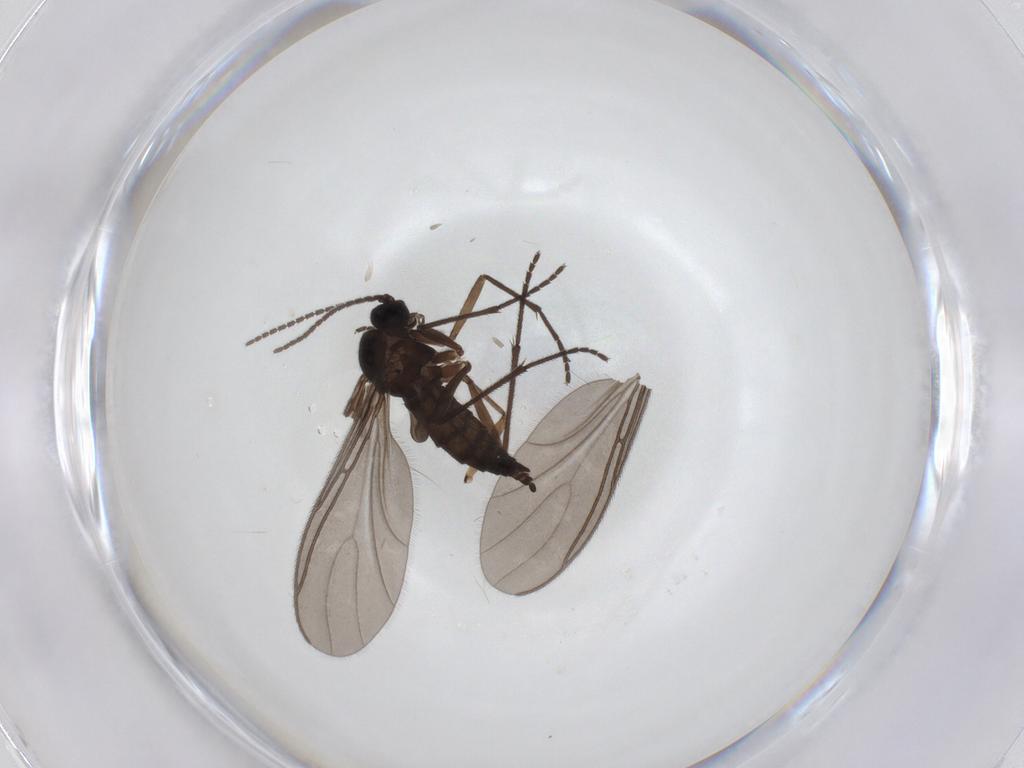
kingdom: Animalia
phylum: Arthropoda
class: Insecta
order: Diptera
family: Sciaridae
